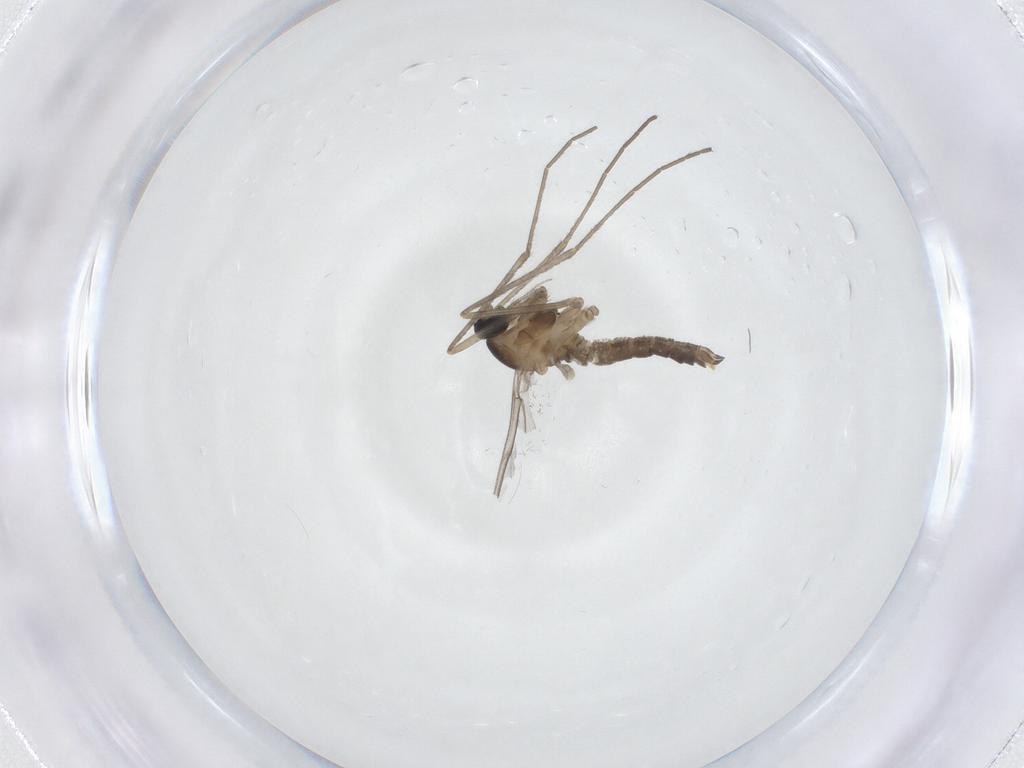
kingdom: Animalia
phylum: Arthropoda
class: Insecta
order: Diptera
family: Cecidomyiidae
